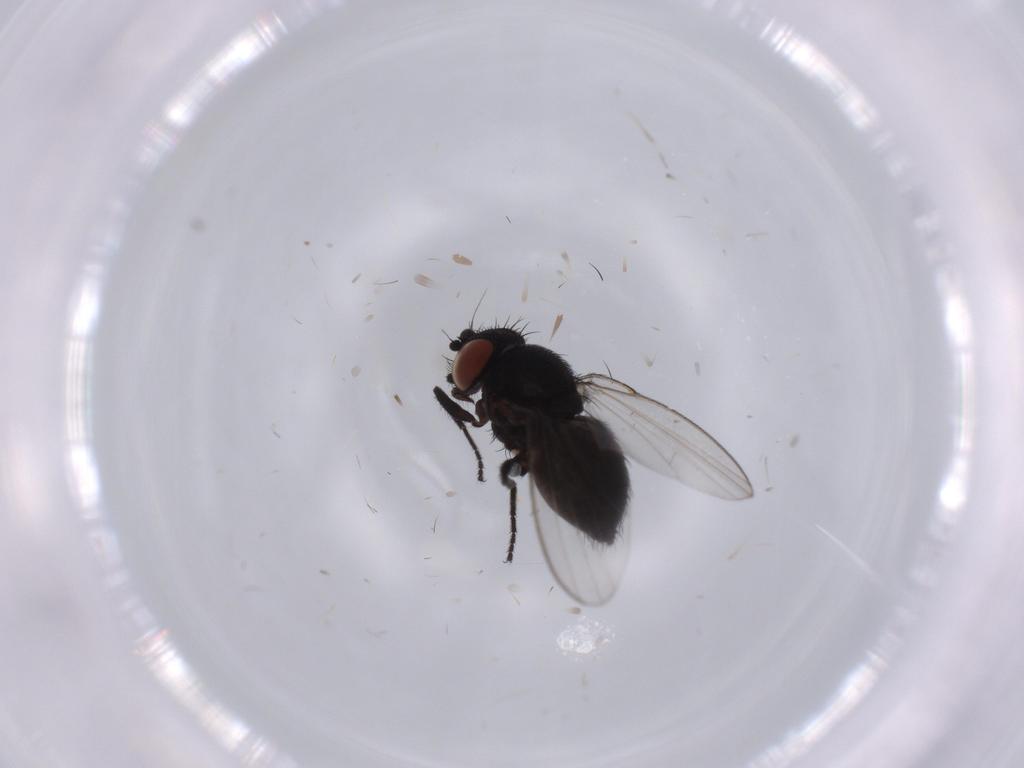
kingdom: Animalia
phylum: Arthropoda
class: Insecta
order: Diptera
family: Milichiidae
